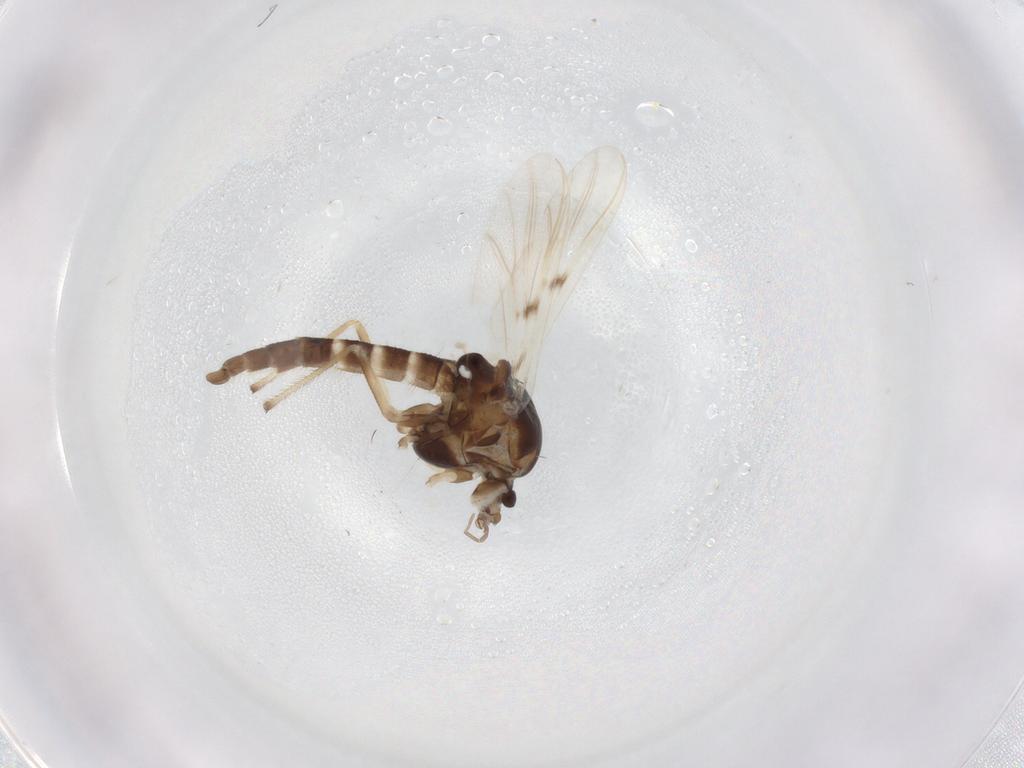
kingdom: Animalia
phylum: Arthropoda
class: Insecta
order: Diptera
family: Chironomidae
